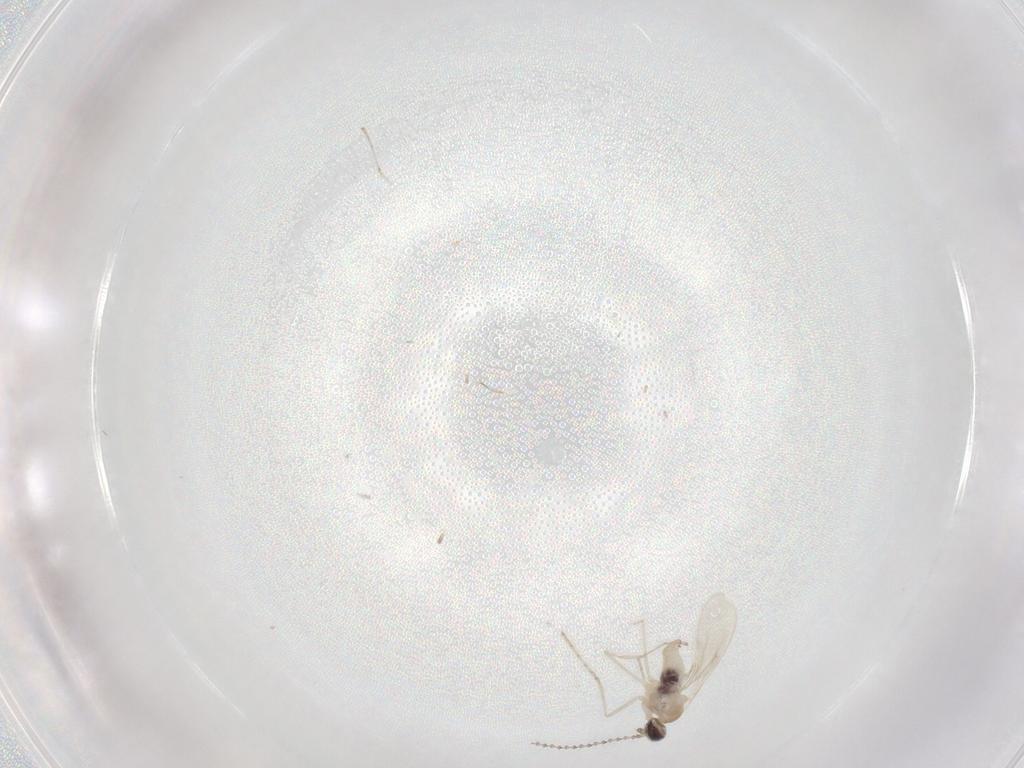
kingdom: Animalia
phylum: Arthropoda
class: Insecta
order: Diptera
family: Cecidomyiidae
